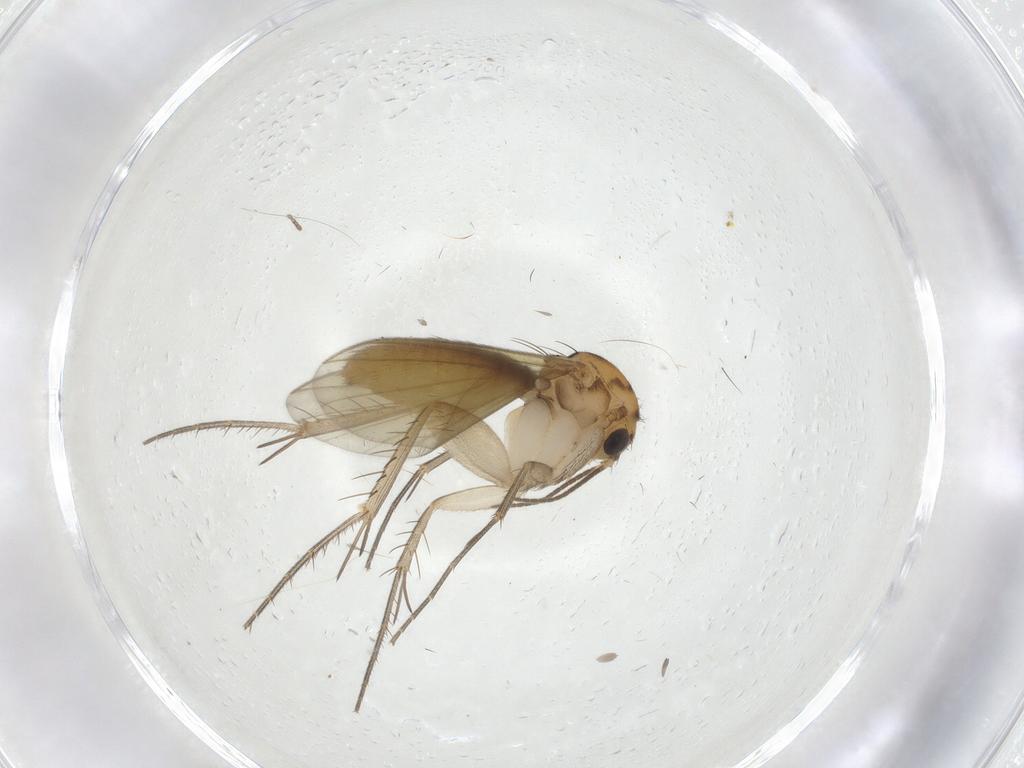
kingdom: Animalia
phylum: Arthropoda
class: Insecta
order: Diptera
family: Mycetophilidae
